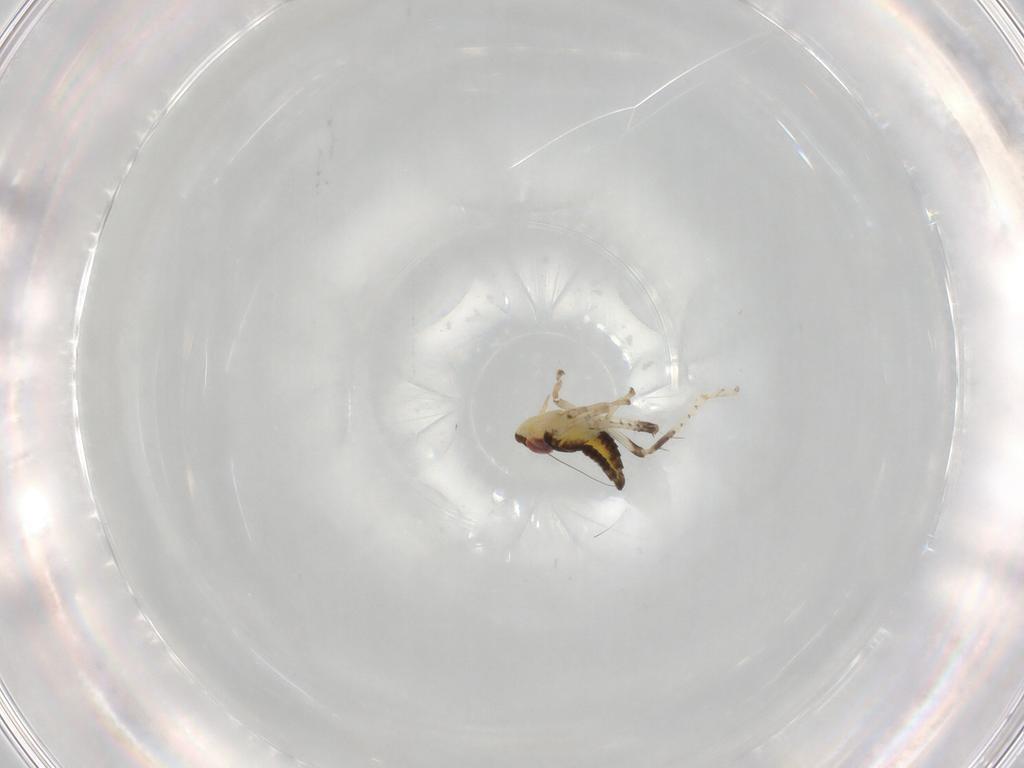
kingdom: Animalia
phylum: Arthropoda
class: Insecta
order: Hemiptera
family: Cicadellidae
